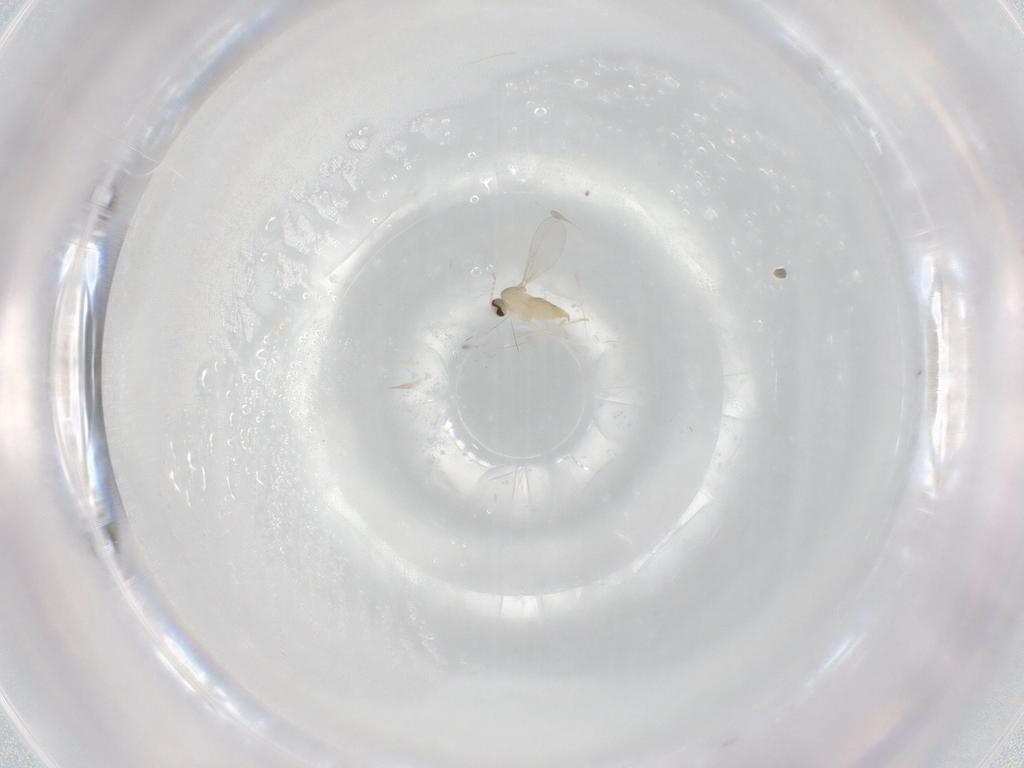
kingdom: Animalia
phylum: Arthropoda
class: Insecta
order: Diptera
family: Cecidomyiidae
